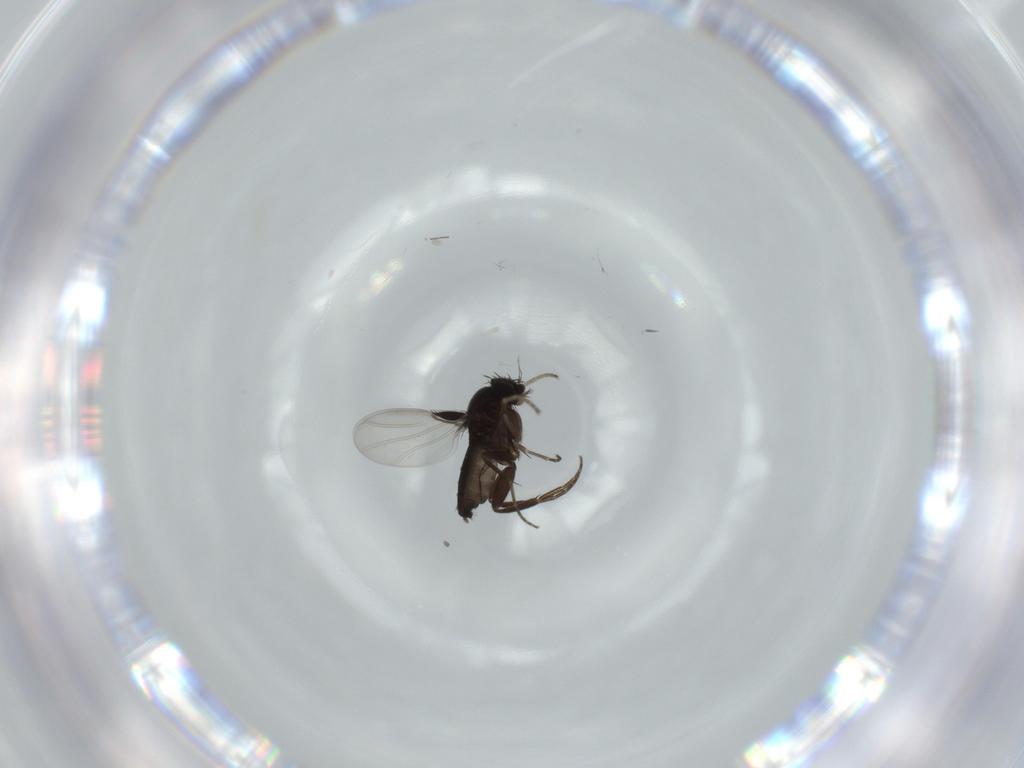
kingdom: Animalia
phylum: Arthropoda
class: Insecta
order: Diptera
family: Phoridae
